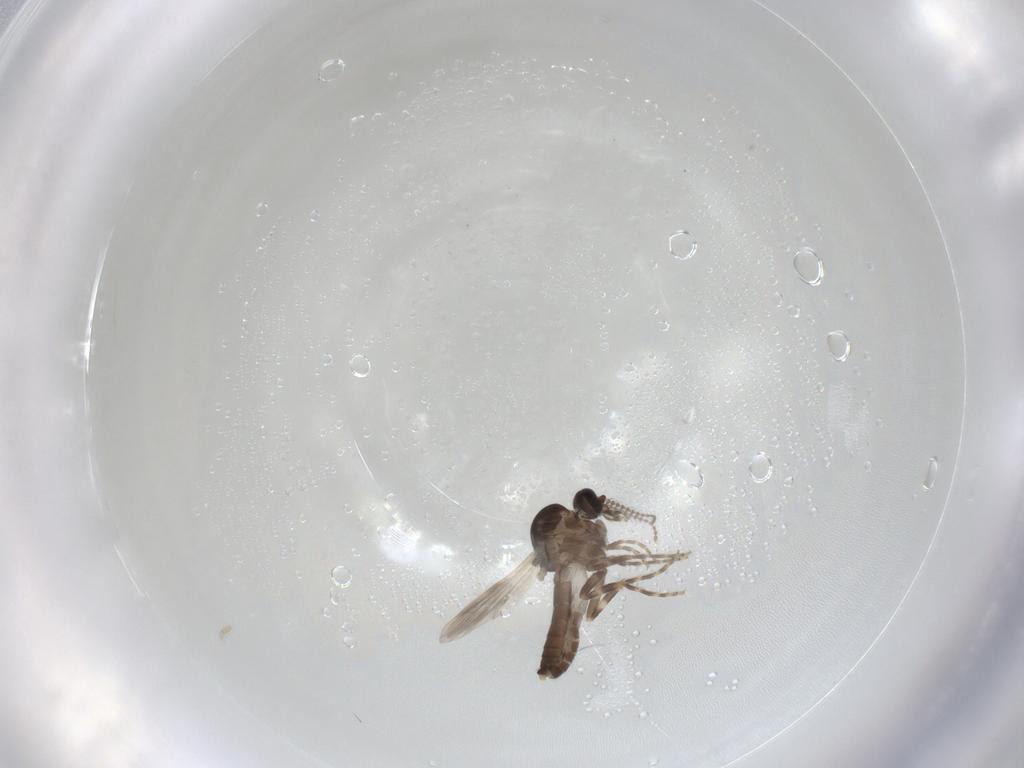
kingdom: Animalia
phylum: Arthropoda
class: Insecta
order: Diptera
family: Ceratopogonidae
